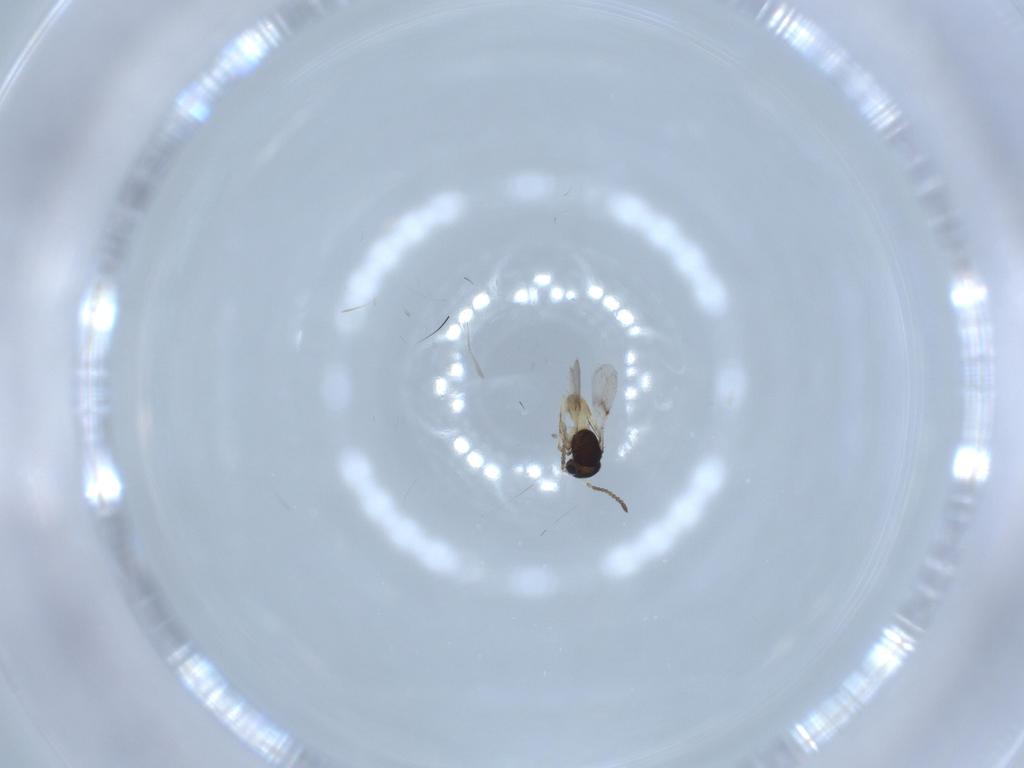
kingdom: Animalia
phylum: Arthropoda
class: Insecta
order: Hymenoptera
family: Scelionidae
